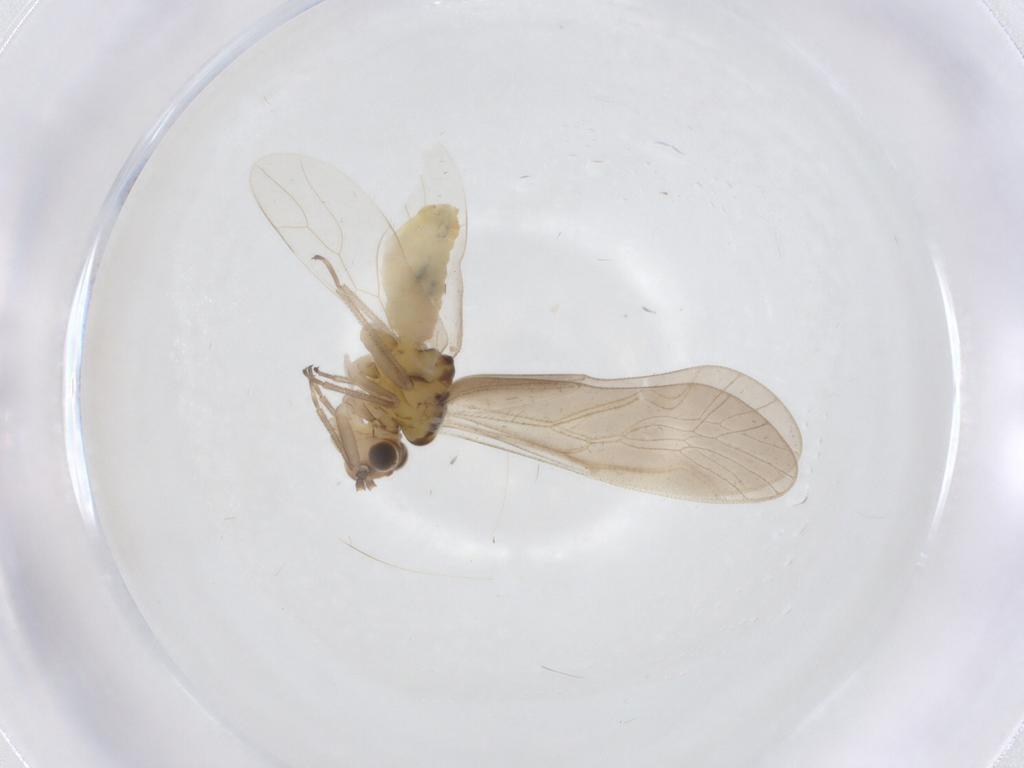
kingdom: Animalia
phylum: Arthropoda
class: Insecta
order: Psocodea
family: Caeciliusidae
